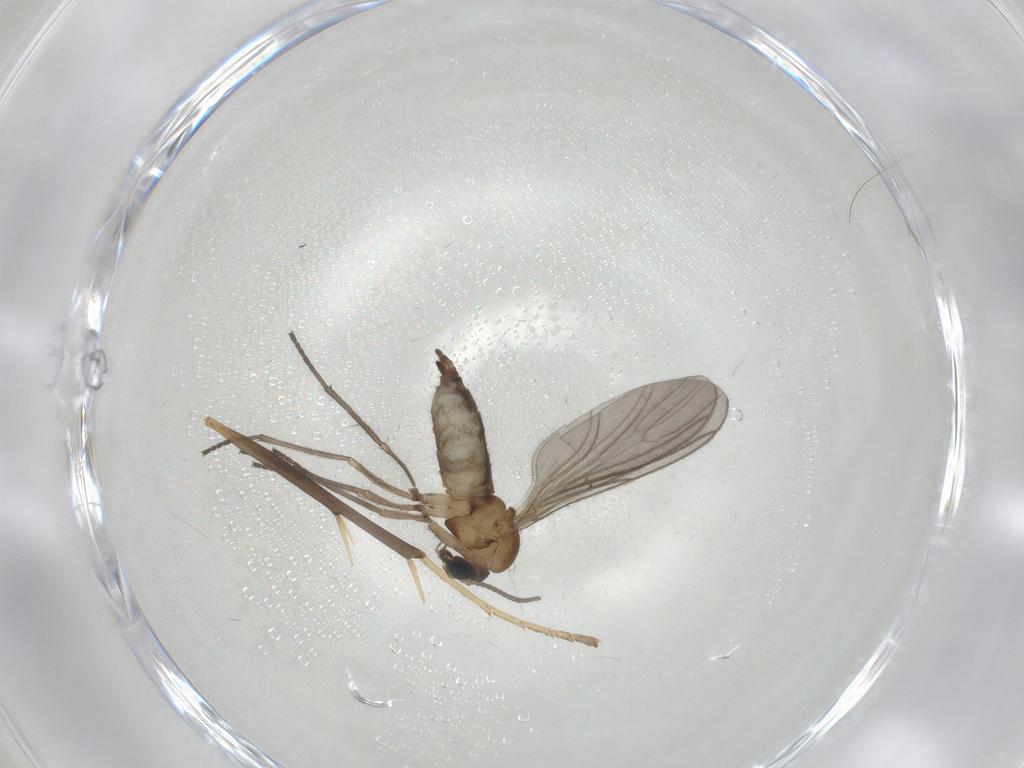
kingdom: Animalia
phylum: Arthropoda
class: Insecta
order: Diptera
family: Sciaridae
